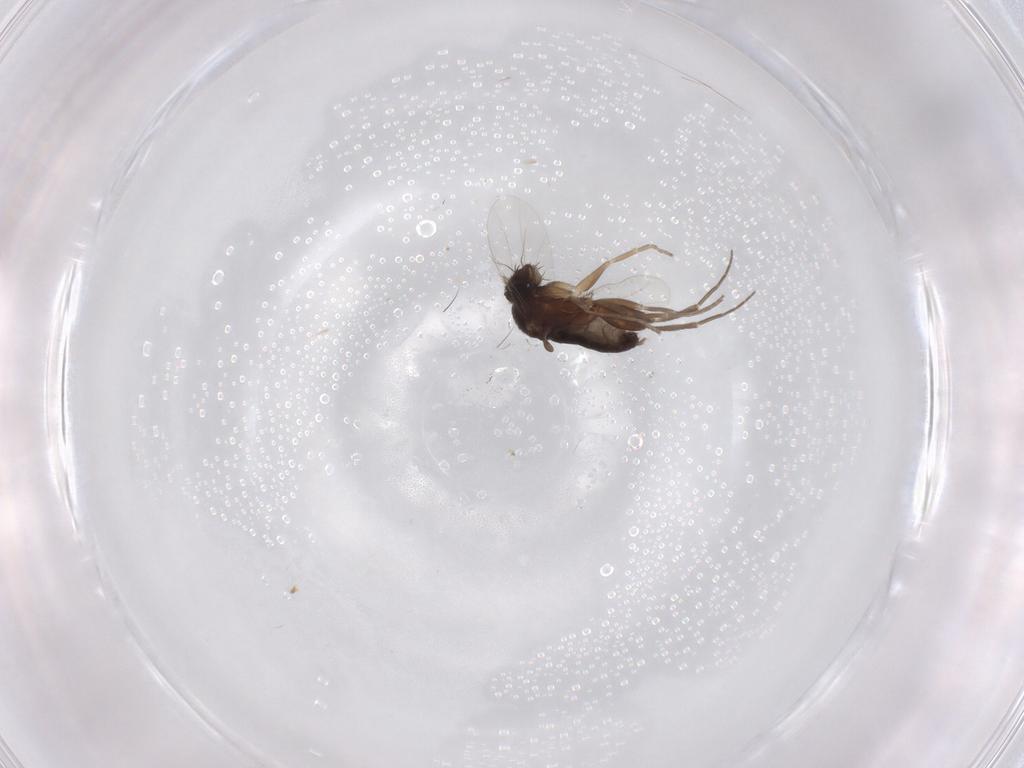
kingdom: Animalia
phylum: Arthropoda
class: Insecta
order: Diptera
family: Phoridae
